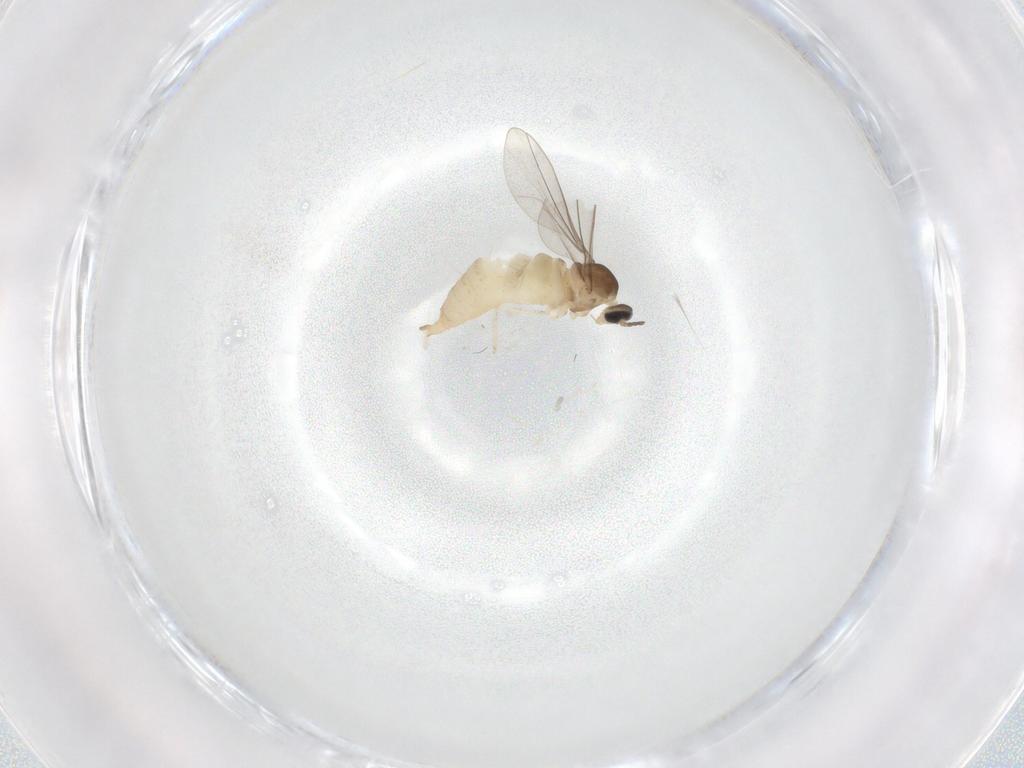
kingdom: Animalia
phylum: Arthropoda
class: Insecta
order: Diptera
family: Cecidomyiidae
